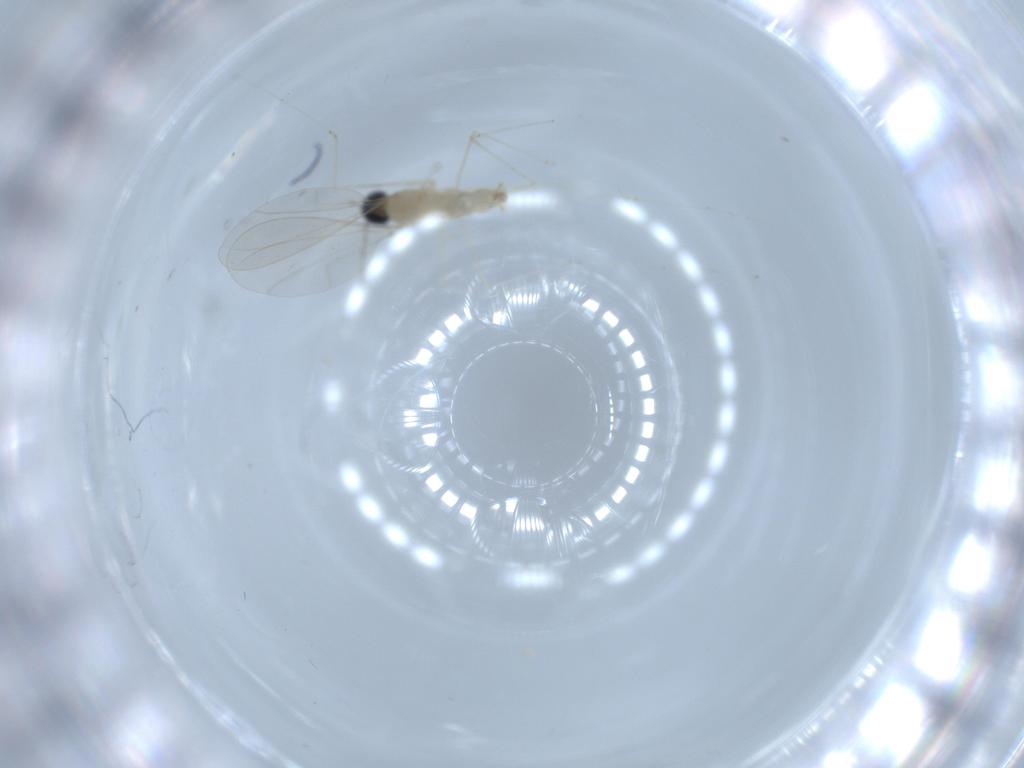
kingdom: Animalia
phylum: Arthropoda
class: Insecta
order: Diptera
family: Cecidomyiidae
